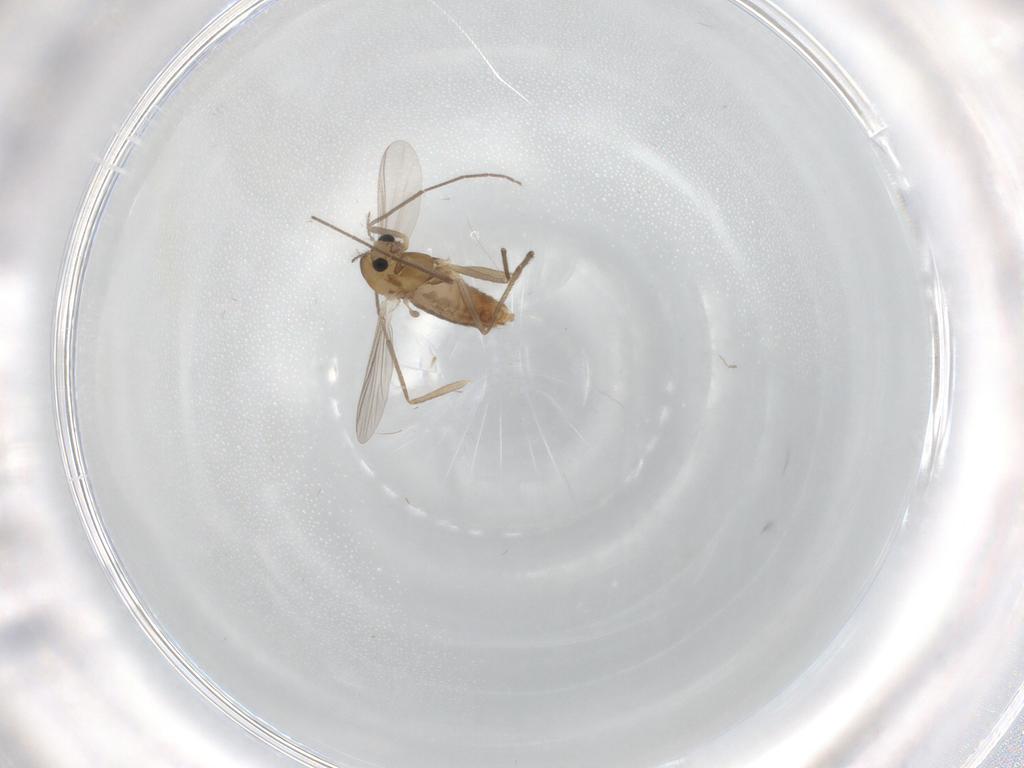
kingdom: Animalia
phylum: Arthropoda
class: Insecta
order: Diptera
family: Chironomidae
